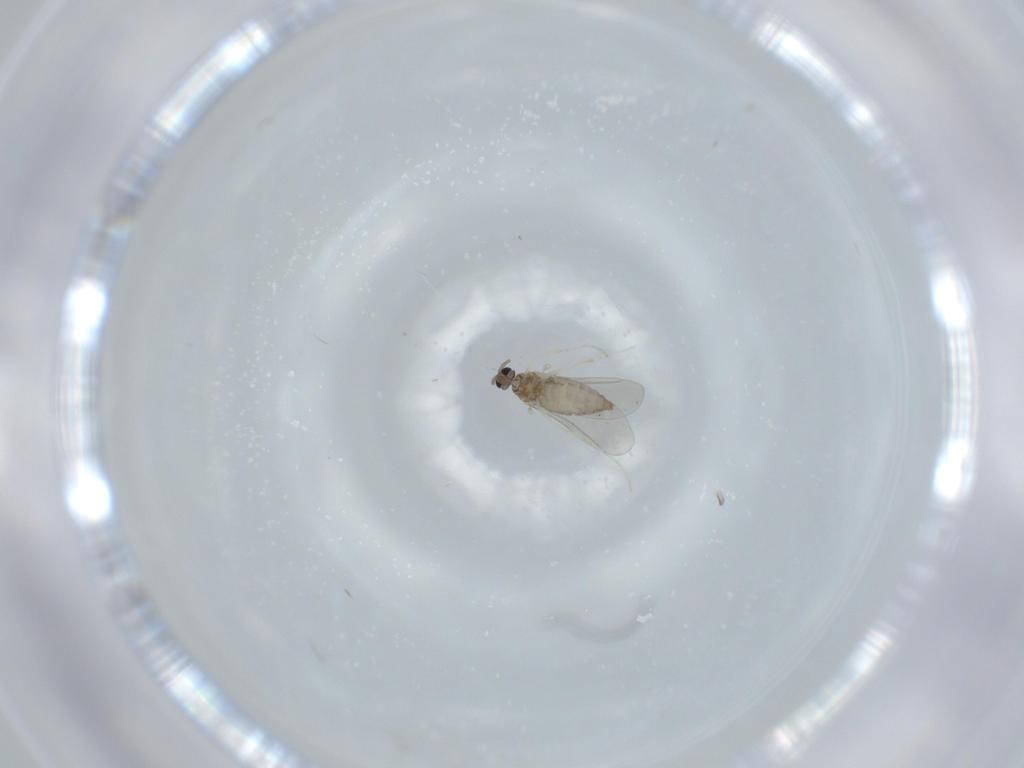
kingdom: Animalia
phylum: Arthropoda
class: Insecta
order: Diptera
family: Cecidomyiidae
